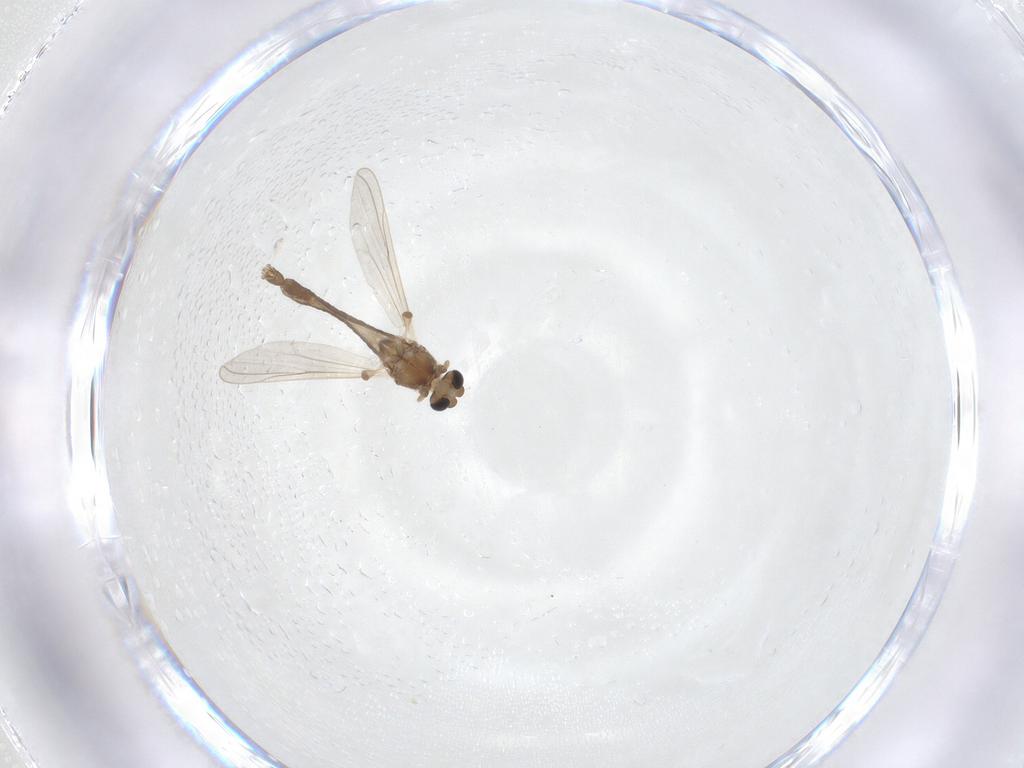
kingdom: Animalia
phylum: Arthropoda
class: Insecta
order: Diptera
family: Chironomidae
